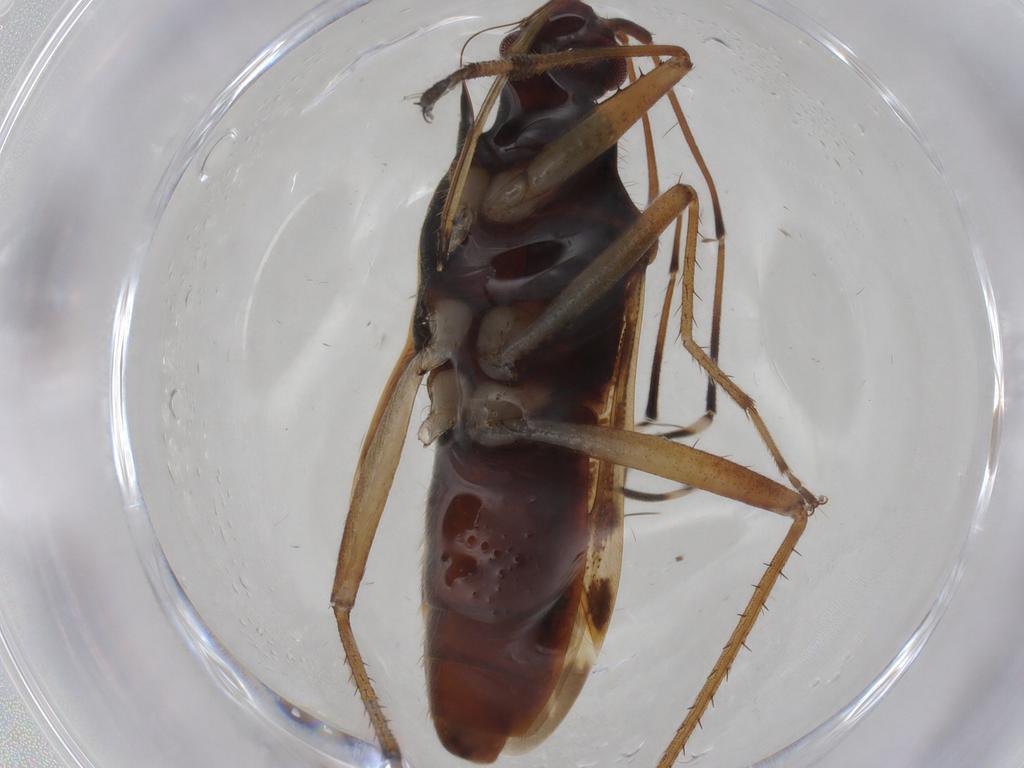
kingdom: Animalia
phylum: Arthropoda
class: Insecta
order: Hemiptera
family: Rhyparochromidae
